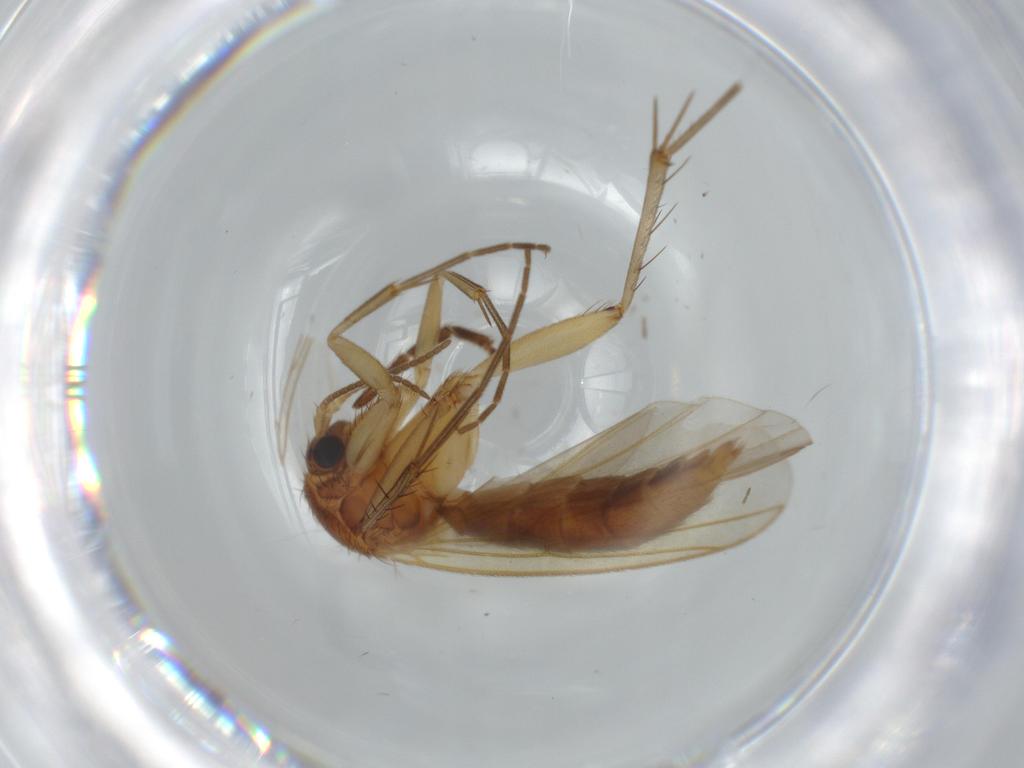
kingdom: Animalia
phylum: Arthropoda
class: Insecta
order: Diptera
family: Mycetophilidae
